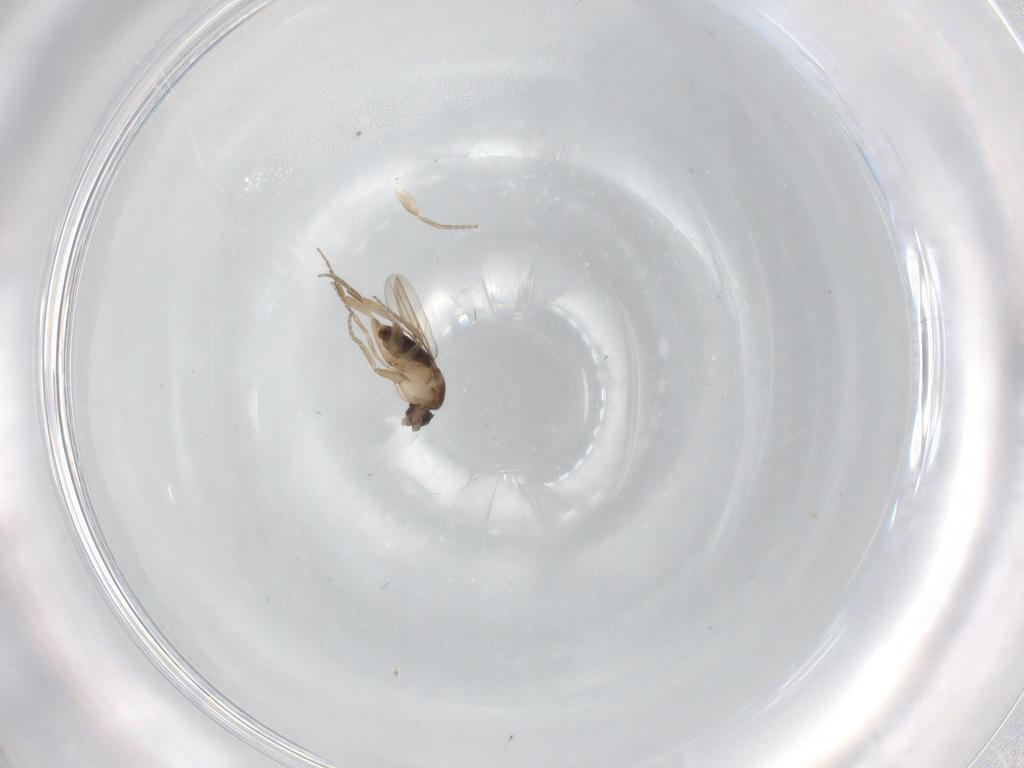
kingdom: Animalia
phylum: Arthropoda
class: Insecta
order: Diptera
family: Phoridae
